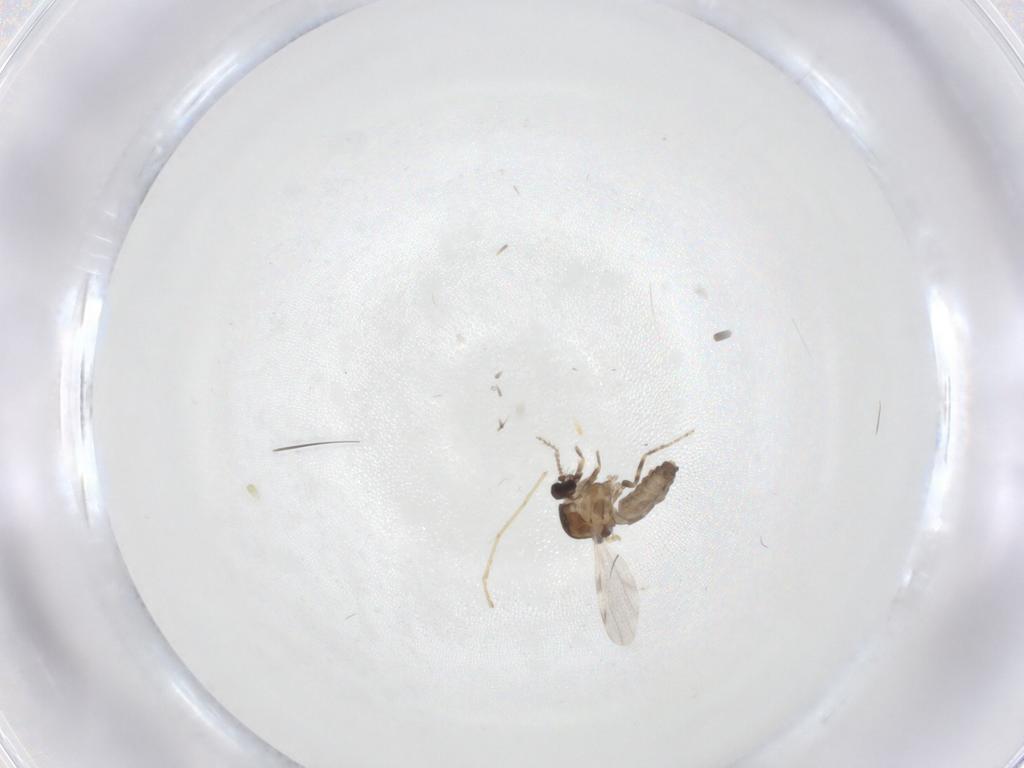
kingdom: Animalia
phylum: Arthropoda
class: Insecta
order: Diptera
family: Ceratopogonidae
